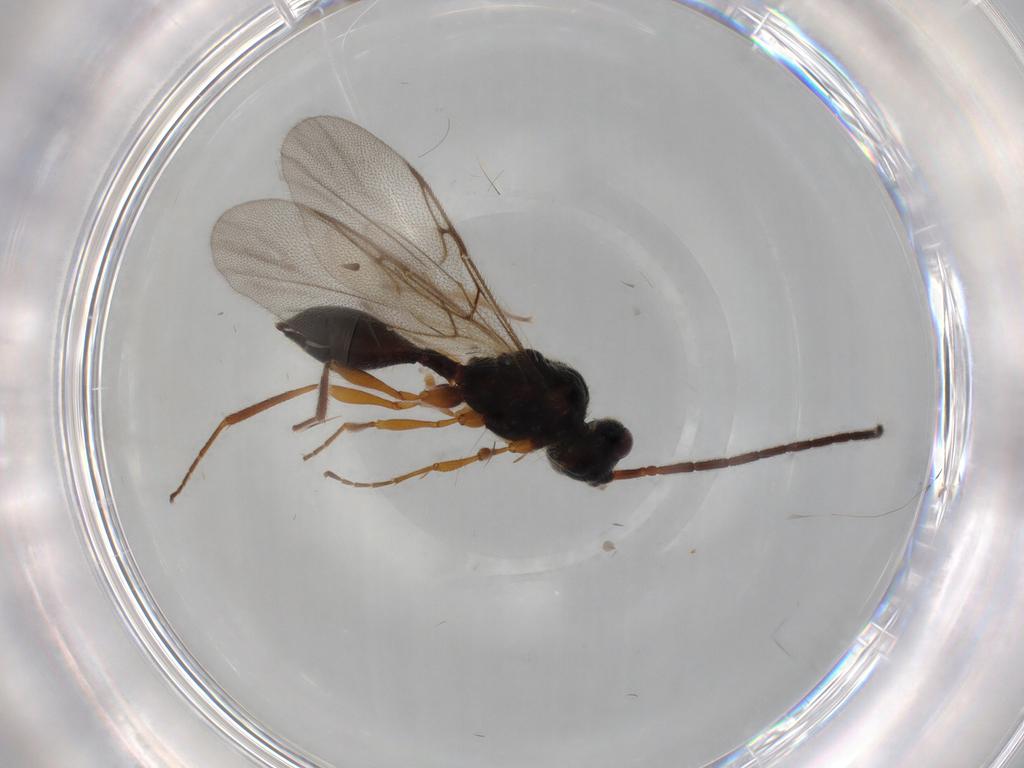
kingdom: Animalia
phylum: Arthropoda
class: Insecta
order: Hymenoptera
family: Diapriidae
